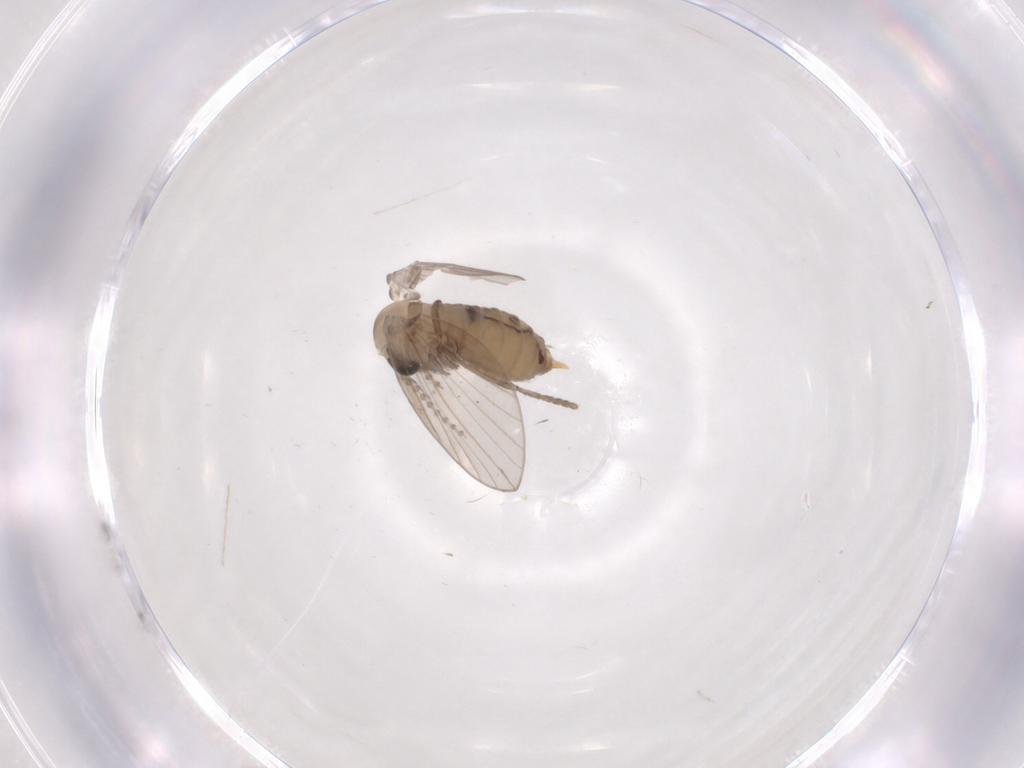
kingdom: Animalia
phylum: Arthropoda
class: Insecta
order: Diptera
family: Psychodidae
